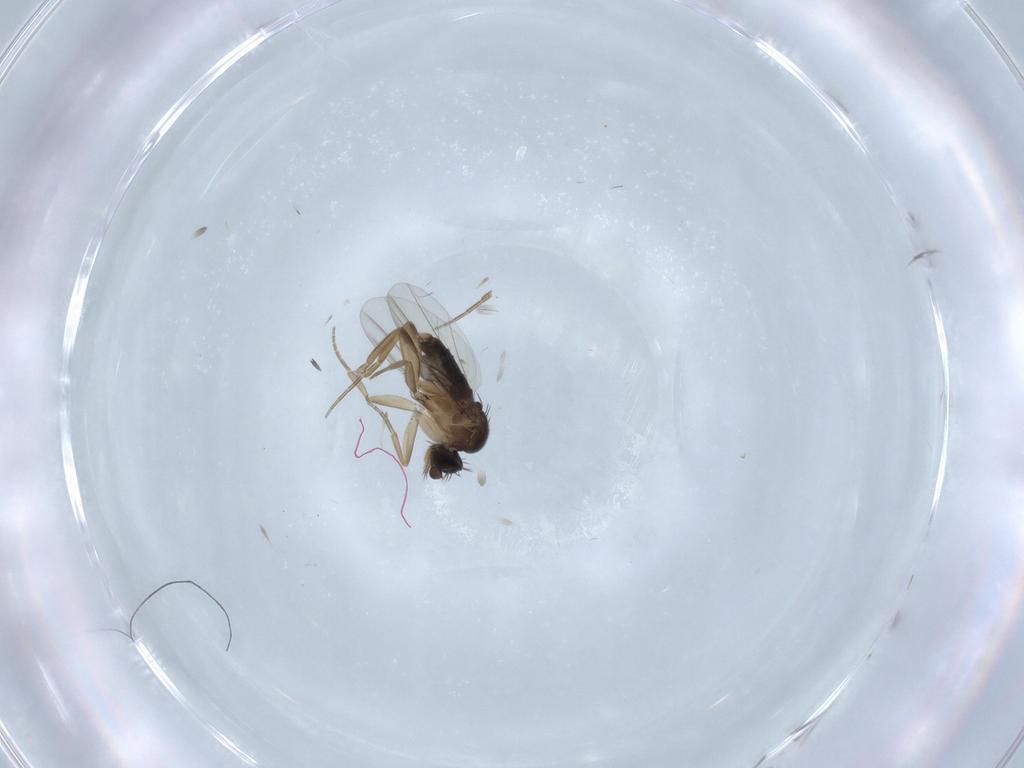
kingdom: Animalia
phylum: Arthropoda
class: Insecta
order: Diptera
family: Phoridae
